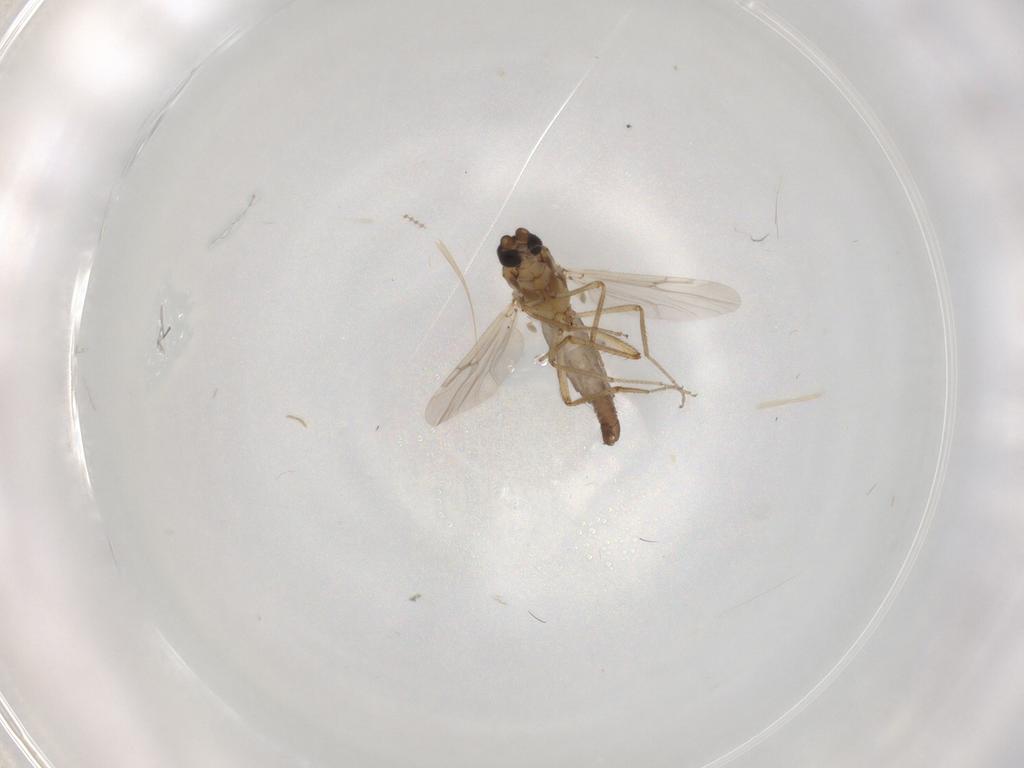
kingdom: Animalia
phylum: Arthropoda
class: Insecta
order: Diptera
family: Ceratopogonidae
